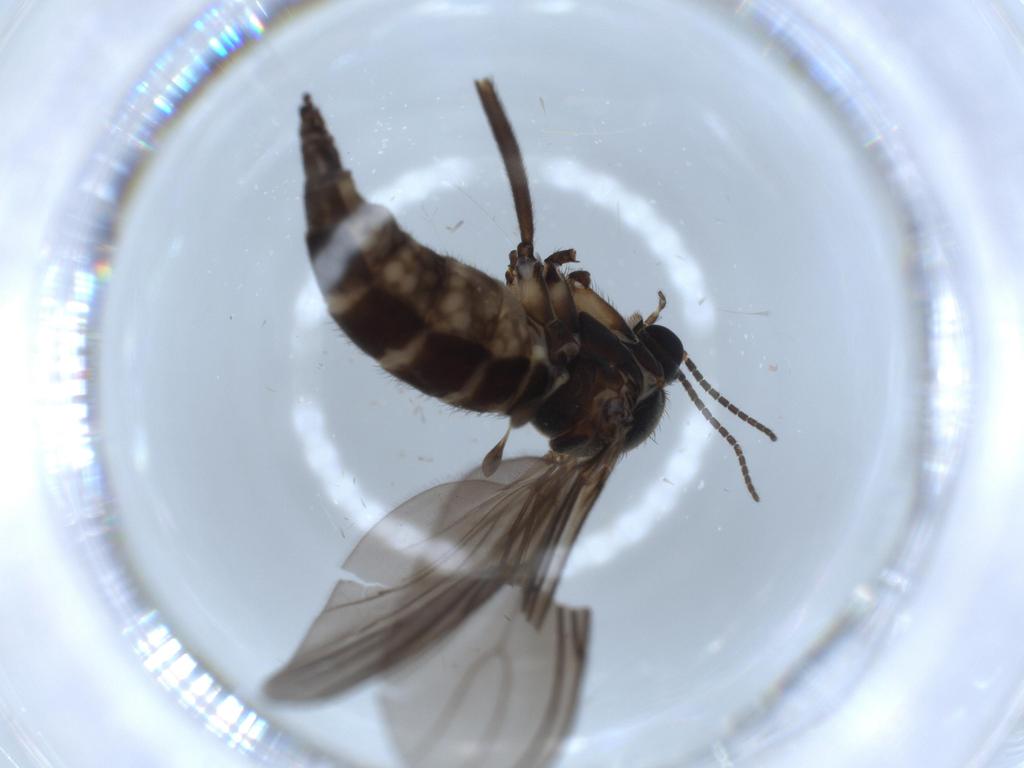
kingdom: Animalia
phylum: Arthropoda
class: Insecta
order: Diptera
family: Sciaridae
